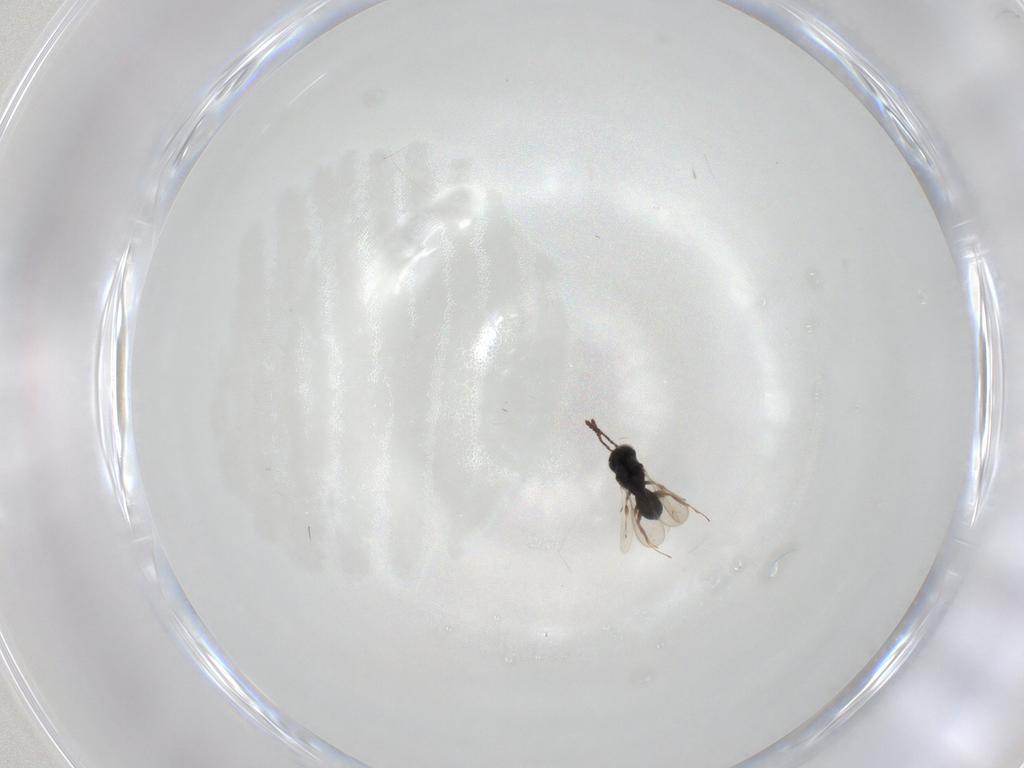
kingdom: Animalia
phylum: Arthropoda
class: Insecta
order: Hymenoptera
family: Scelionidae
